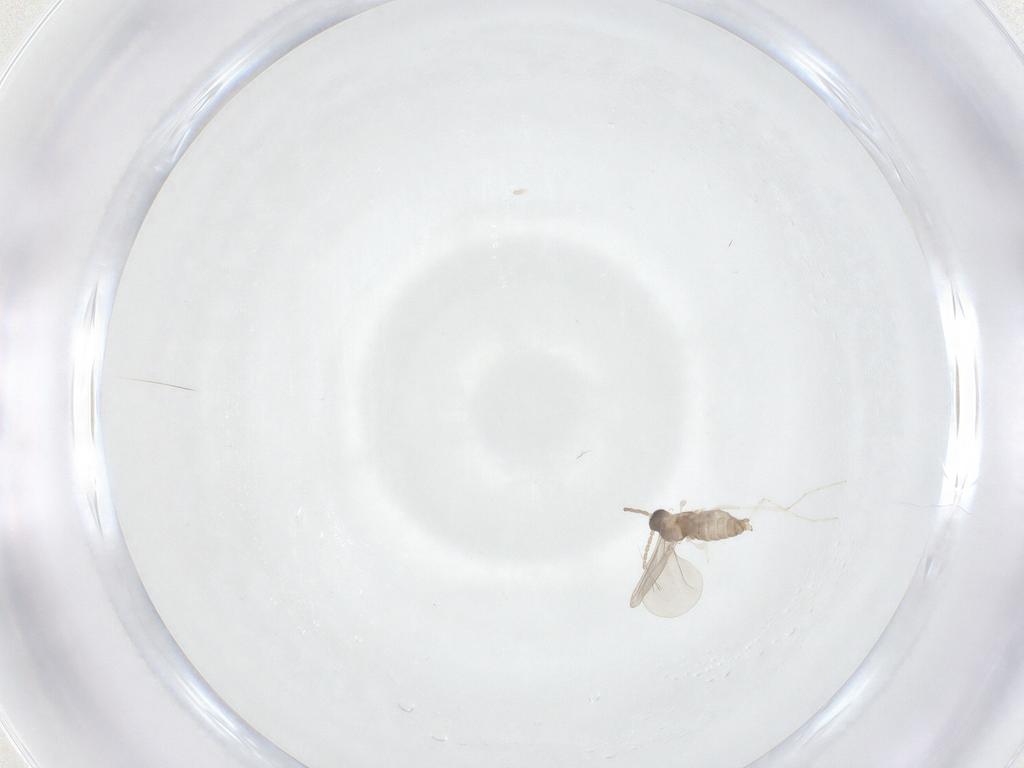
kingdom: Animalia
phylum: Arthropoda
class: Insecta
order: Diptera
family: Cecidomyiidae
